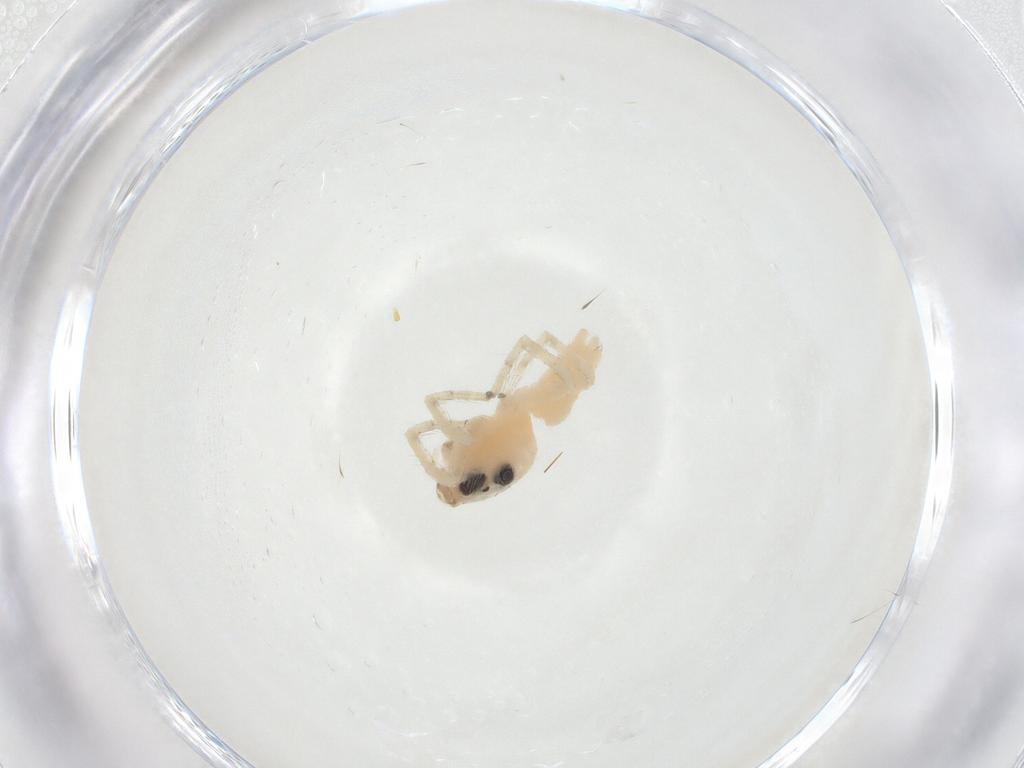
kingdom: Animalia
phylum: Arthropoda
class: Arachnida
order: Araneae
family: Salticidae
